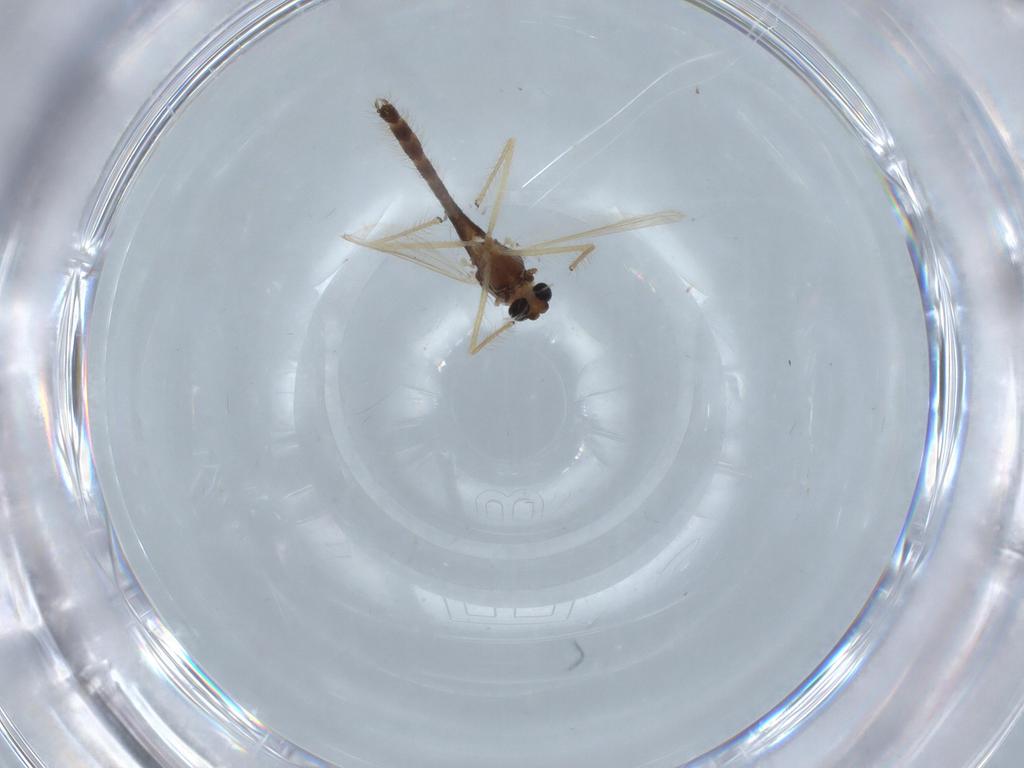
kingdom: Animalia
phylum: Arthropoda
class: Insecta
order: Diptera
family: Chironomidae
